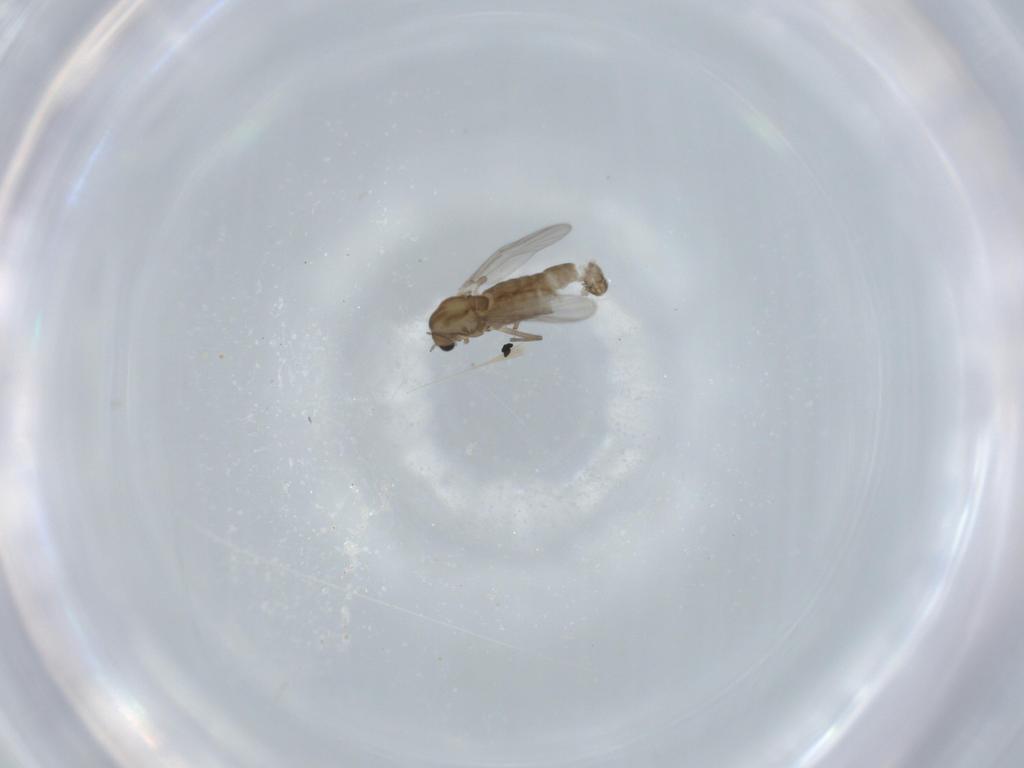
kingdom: Animalia
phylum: Arthropoda
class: Insecta
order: Diptera
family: Chironomidae
